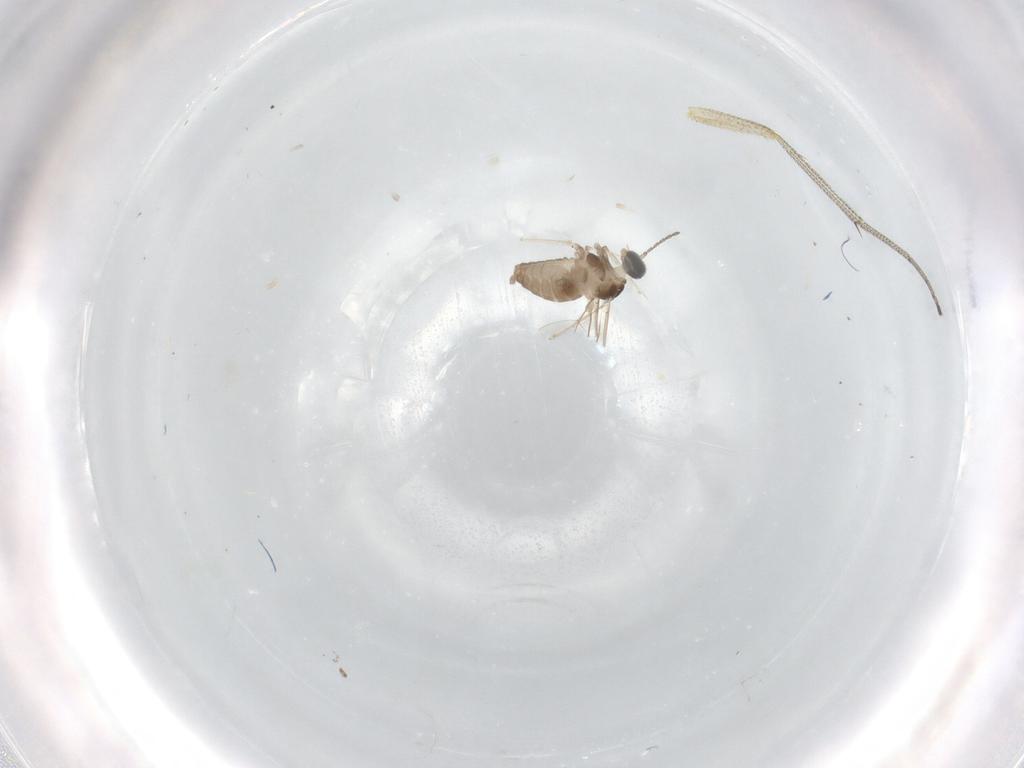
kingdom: Animalia
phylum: Arthropoda
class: Insecta
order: Diptera
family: Dolichopodidae
